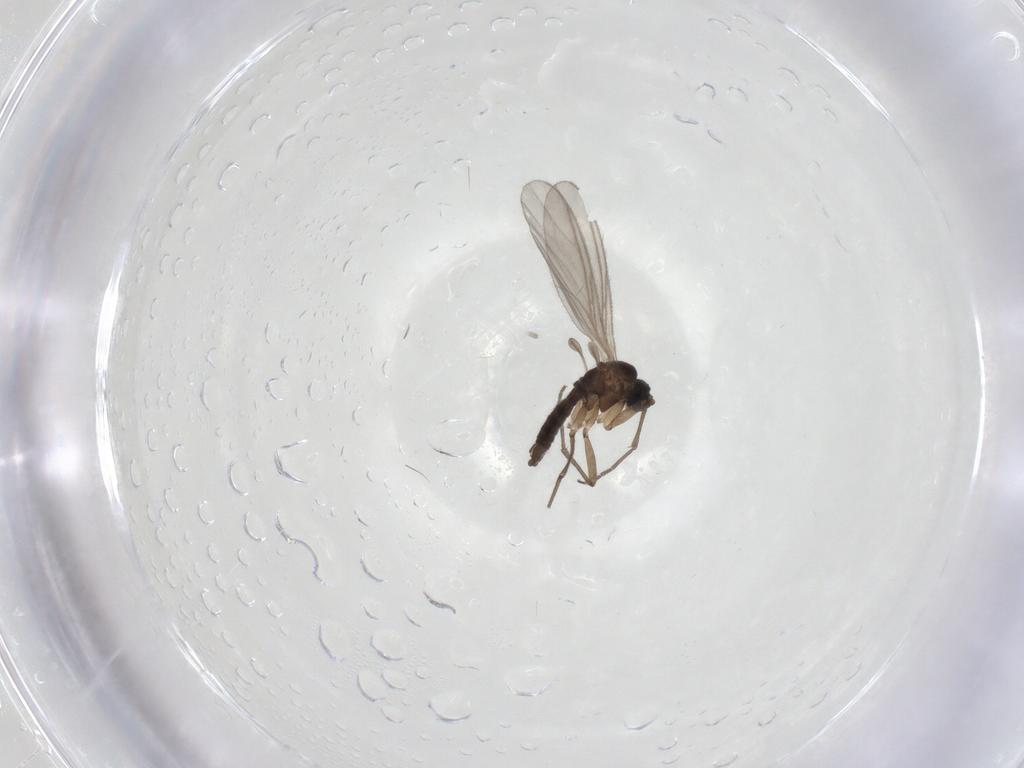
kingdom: Animalia
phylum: Arthropoda
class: Insecta
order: Diptera
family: Sciaridae
